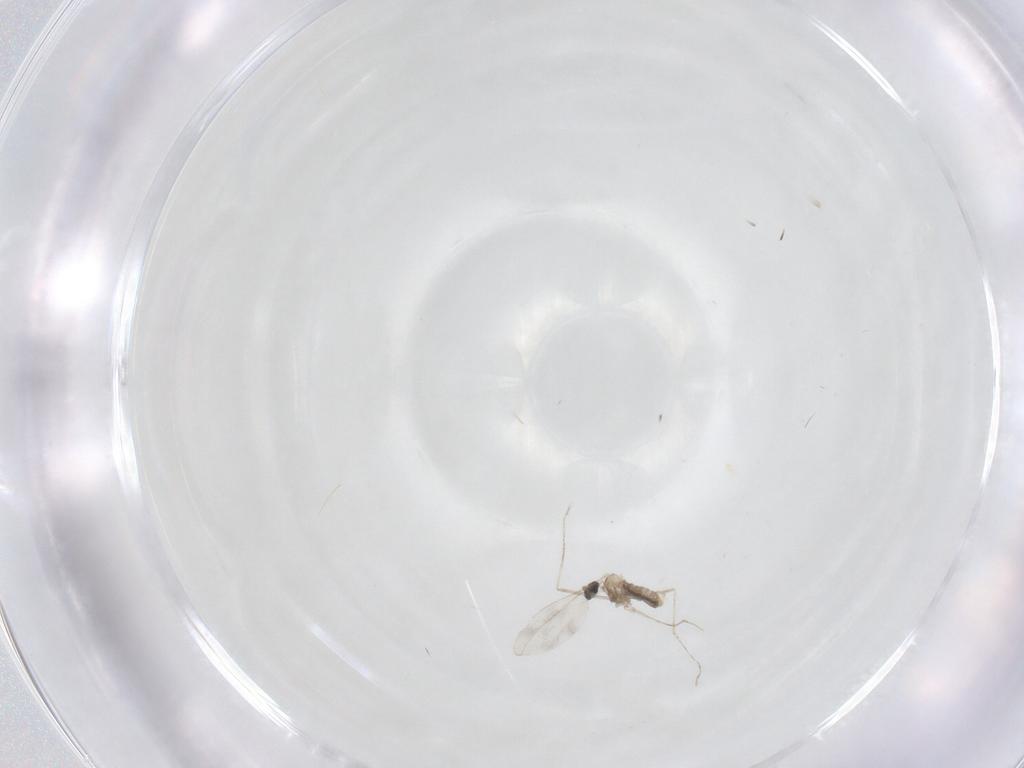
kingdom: Animalia
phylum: Arthropoda
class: Insecta
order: Diptera
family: Cecidomyiidae
